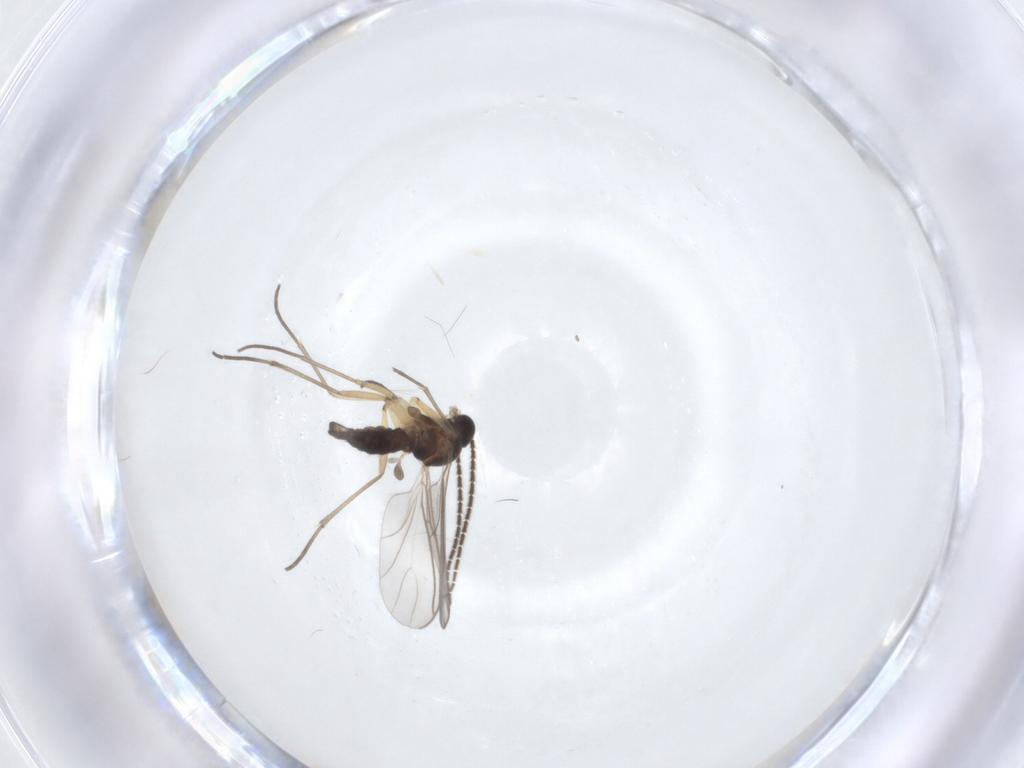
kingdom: Animalia
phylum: Arthropoda
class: Insecta
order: Diptera
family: Sciaridae
